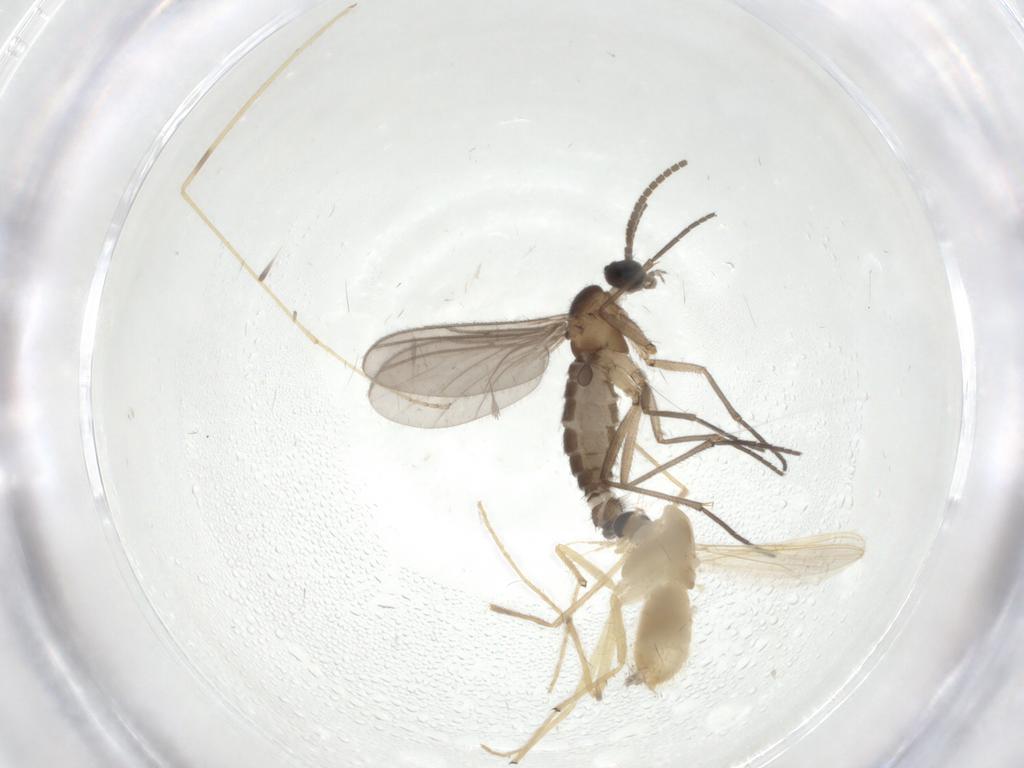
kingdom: Animalia
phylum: Arthropoda
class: Insecta
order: Diptera
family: Limoniidae
